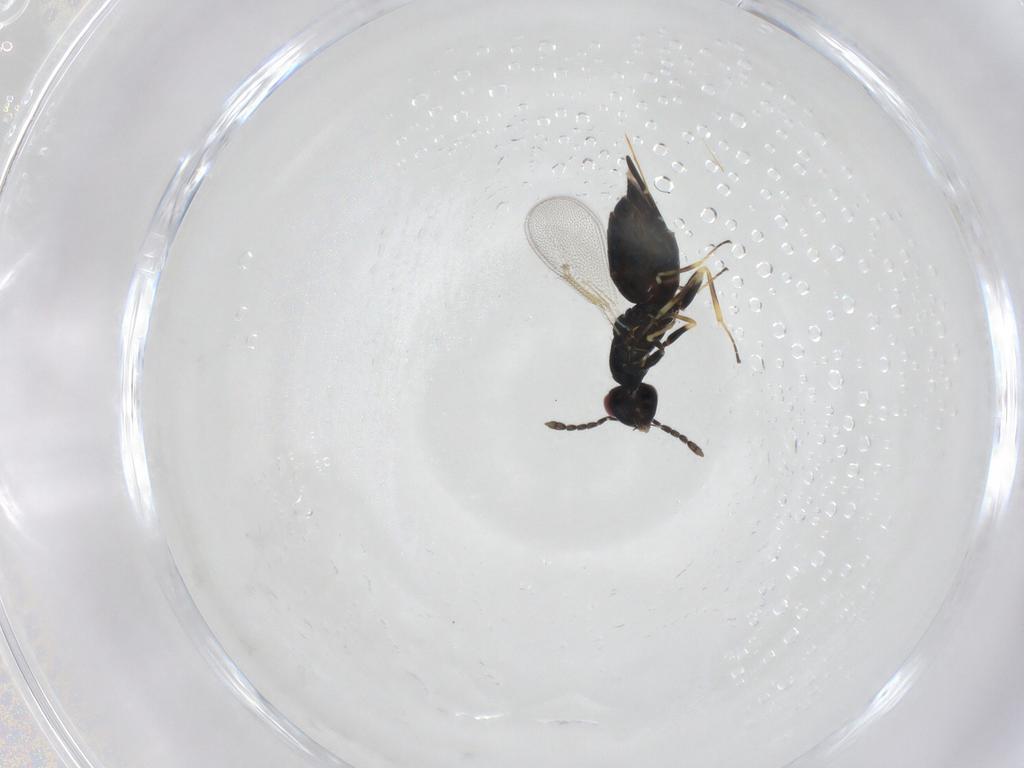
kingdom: Animalia
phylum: Arthropoda
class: Insecta
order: Hymenoptera
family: Eulophidae
